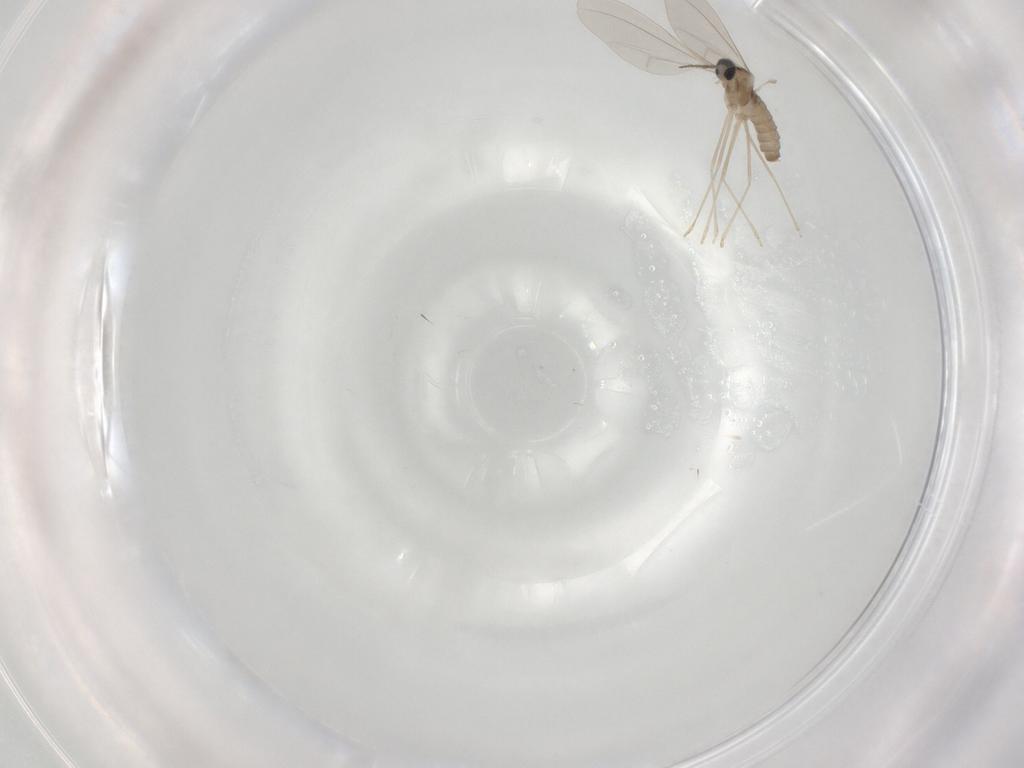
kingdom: Animalia
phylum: Arthropoda
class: Insecta
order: Diptera
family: Cecidomyiidae
